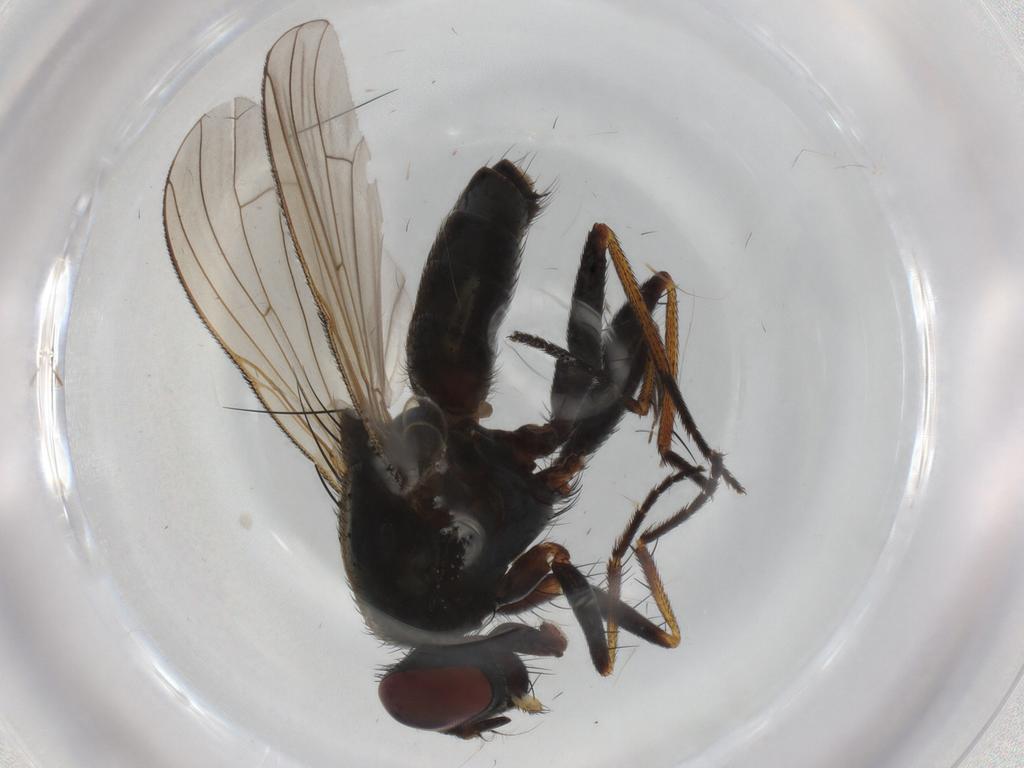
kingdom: Animalia
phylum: Arthropoda
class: Insecta
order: Diptera
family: Muscidae
